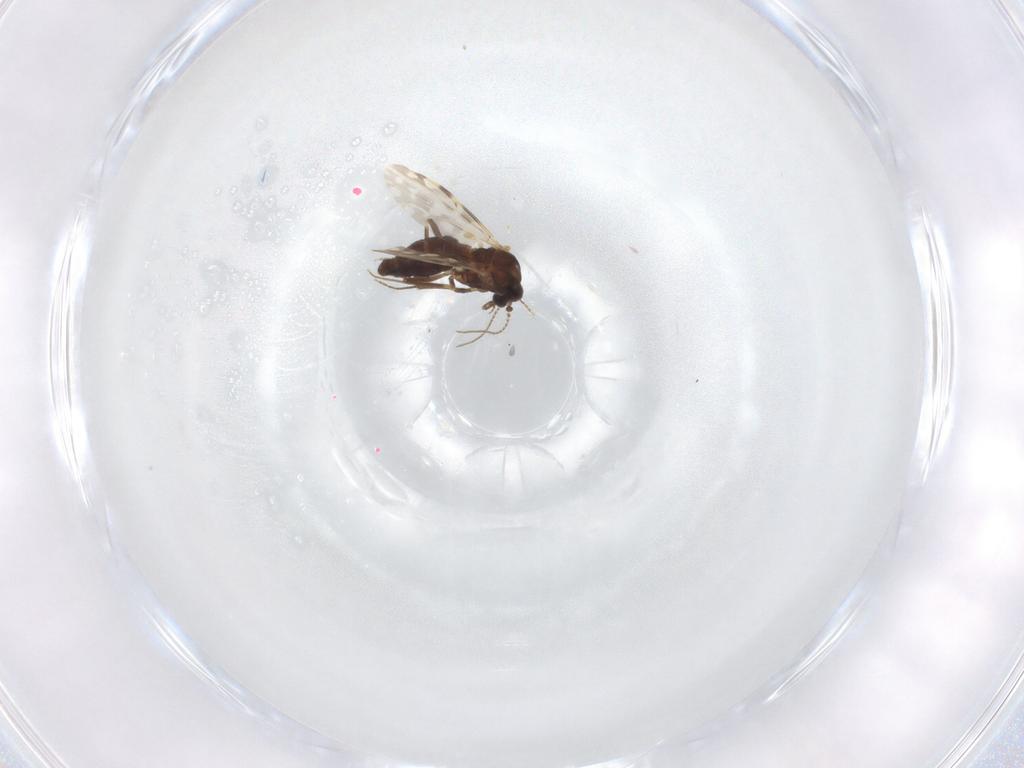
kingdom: Animalia
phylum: Arthropoda
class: Insecta
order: Diptera
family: Ceratopogonidae
